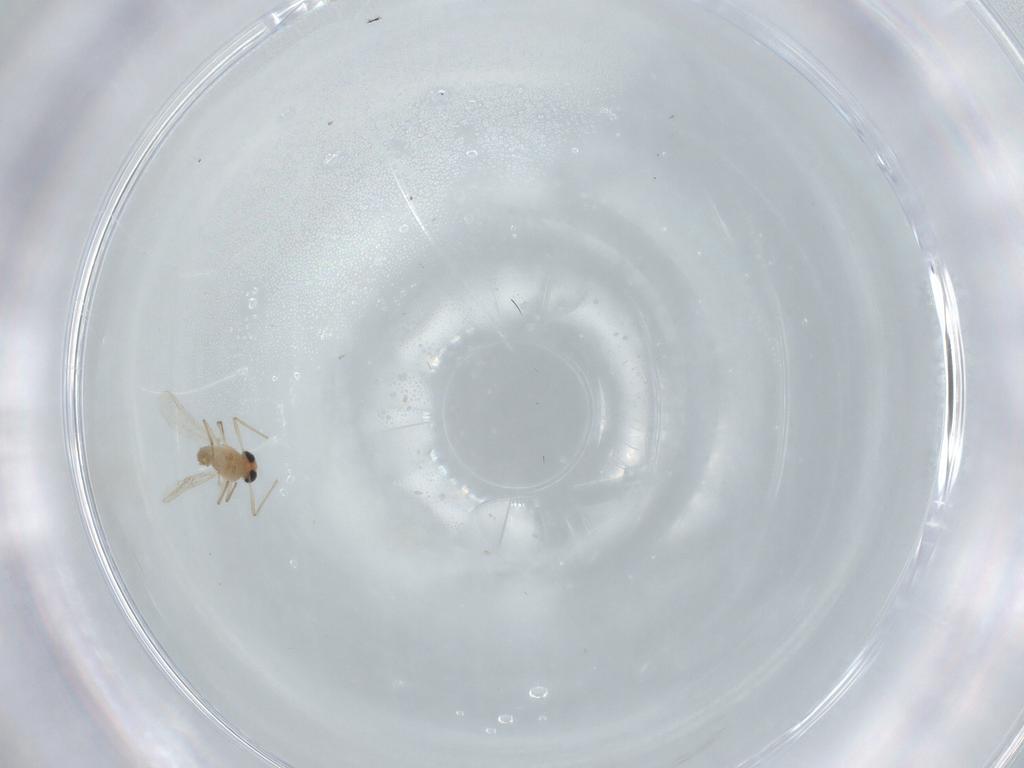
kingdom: Animalia
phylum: Arthropoda
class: Insecta
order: Diptera
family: Chironomidae
